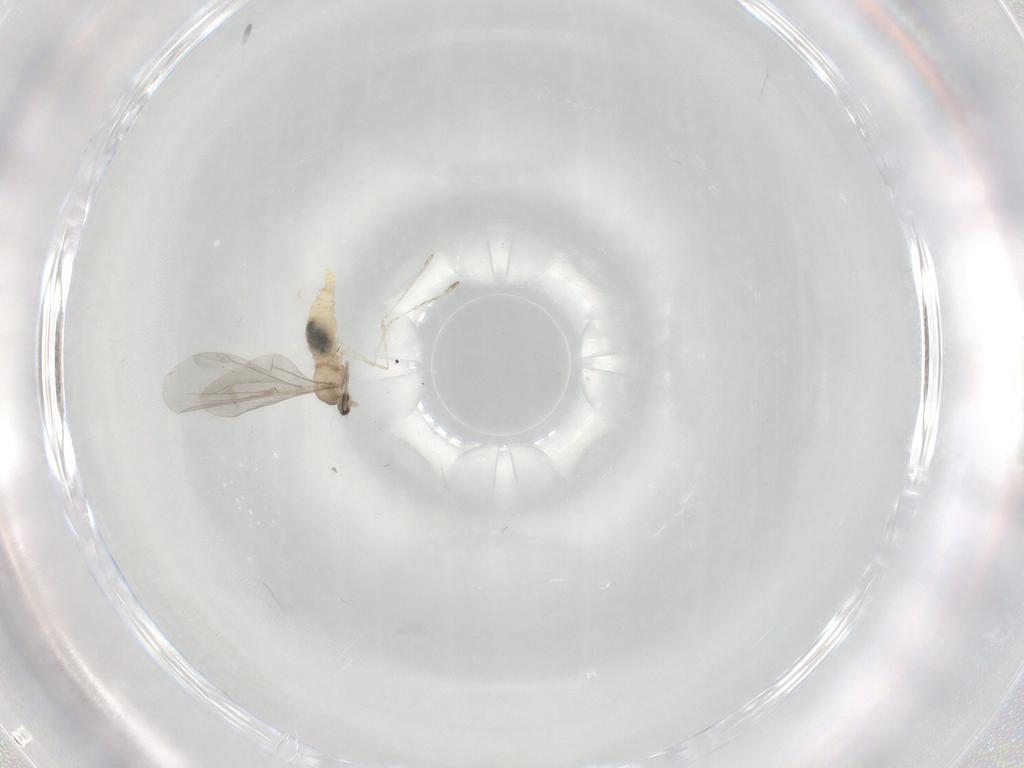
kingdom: Animalia
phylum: Arthropoda
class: Insecta
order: Diptera
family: Cecidomyiidae
